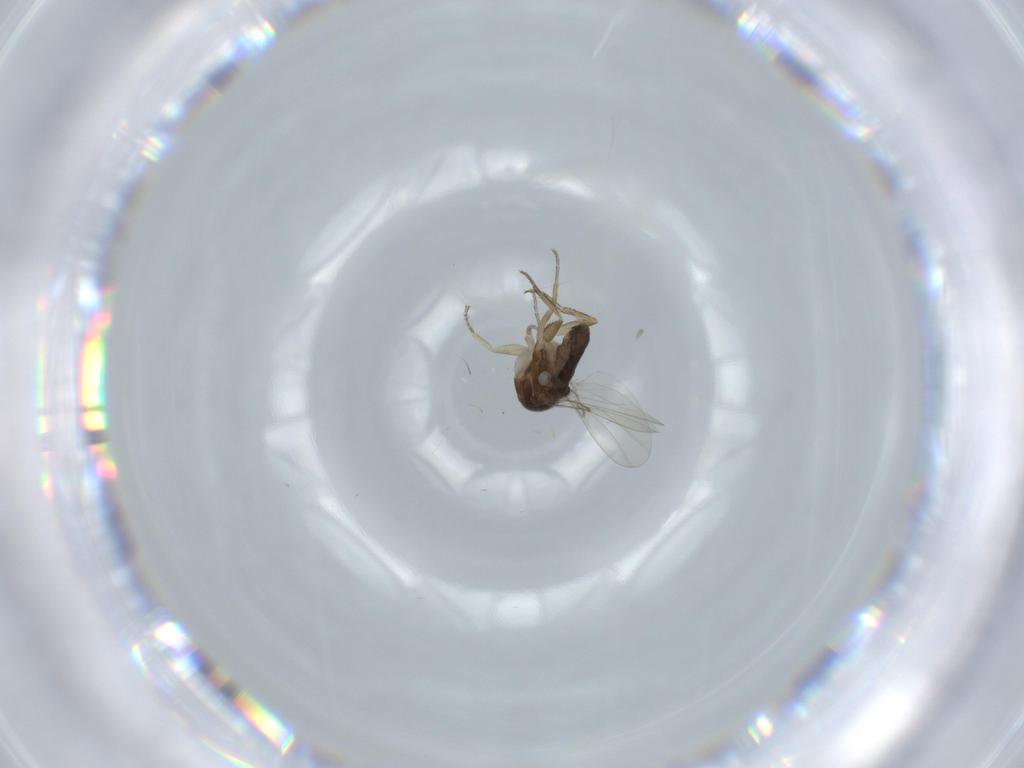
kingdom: Animalia
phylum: Arthropoda
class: Insecta
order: Diptera
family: Phoridae
